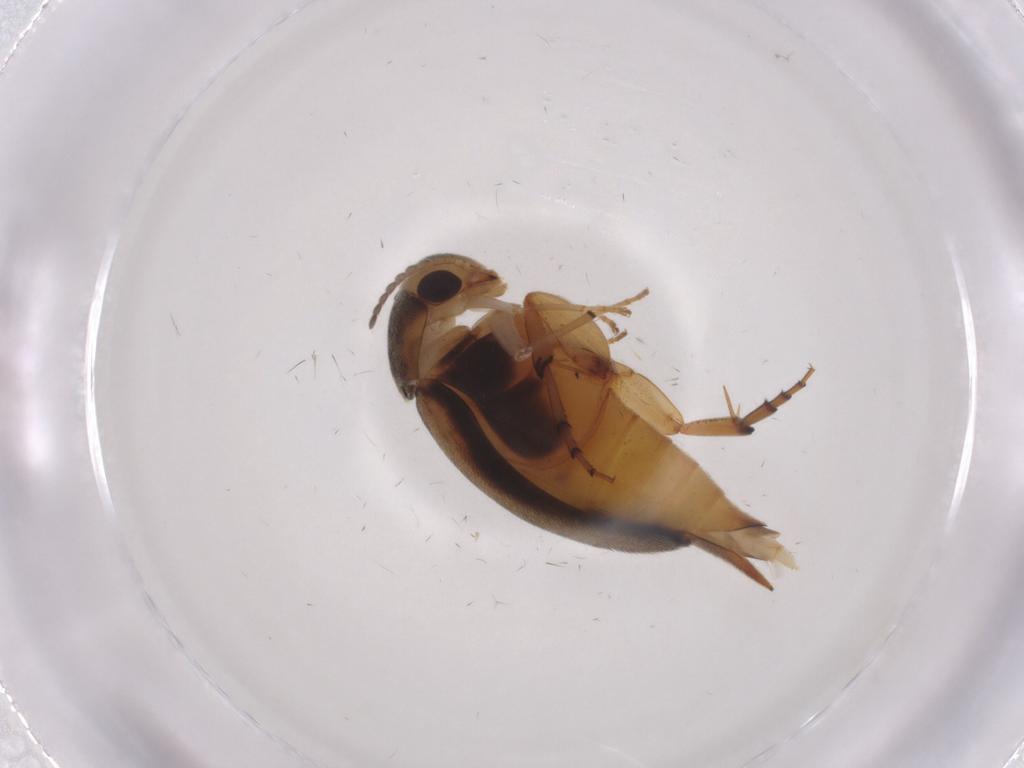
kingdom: Animalia
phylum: Arthropoda
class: Insecta
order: Coleoptera
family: Mordellidae
